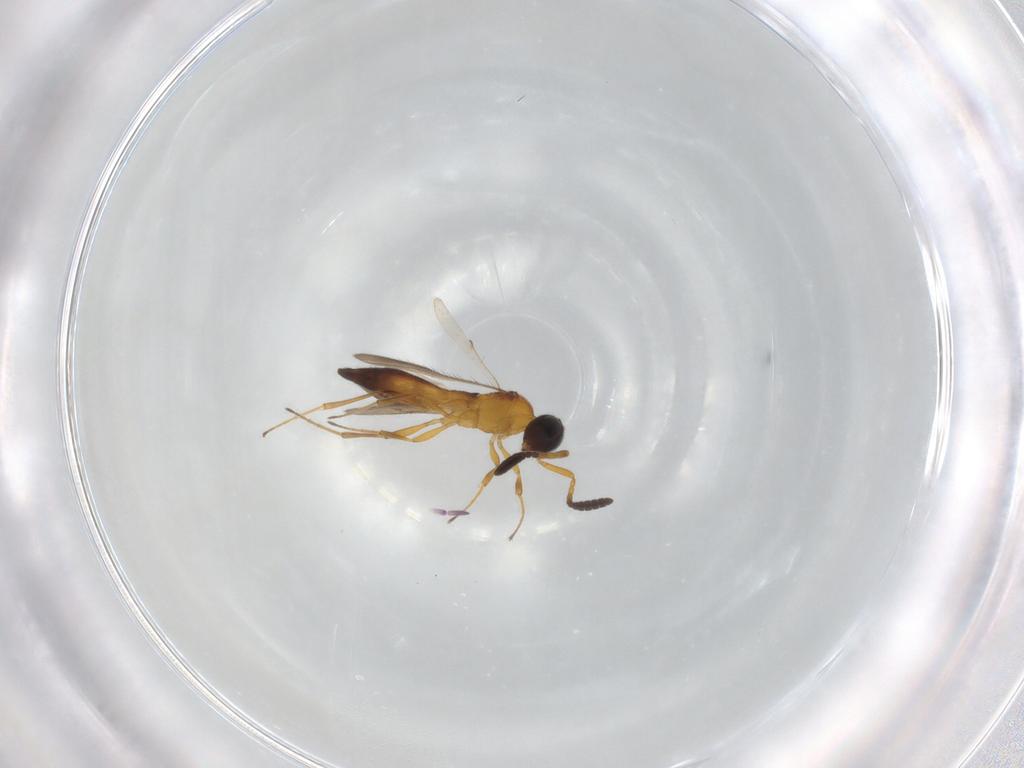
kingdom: Animalia
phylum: Arthropoda
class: Insecta
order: Hymenoptera
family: Scelionidae
